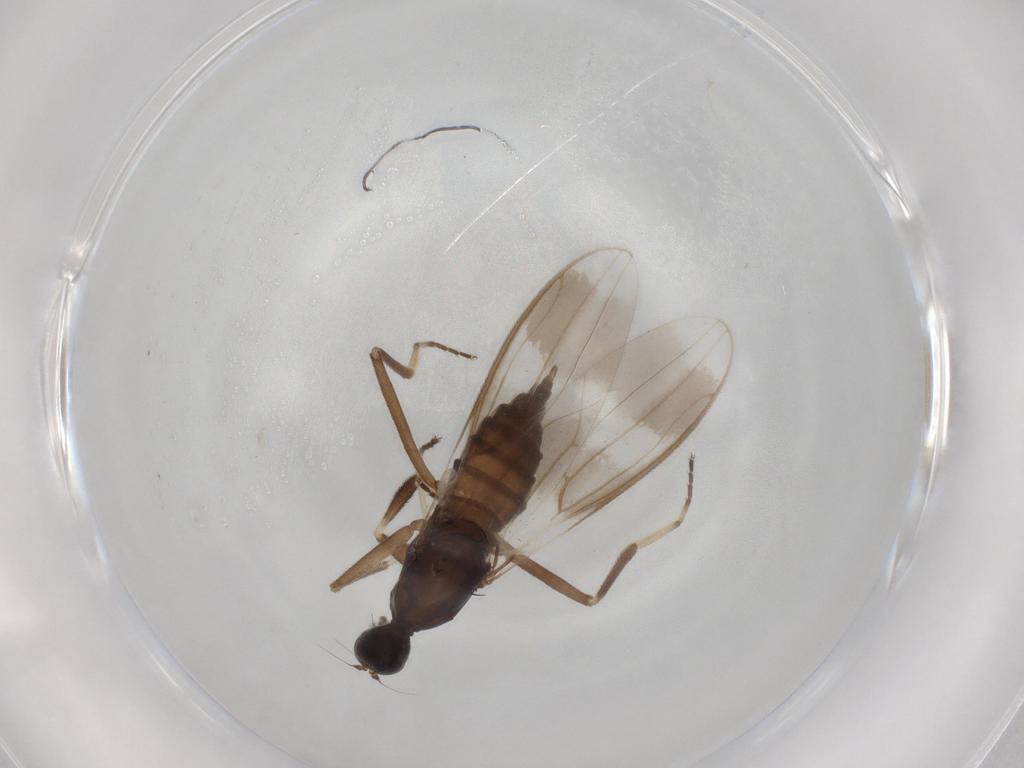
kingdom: Animalia
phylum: Arthropoda
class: Insecta
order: Diptera
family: Hybotidae
